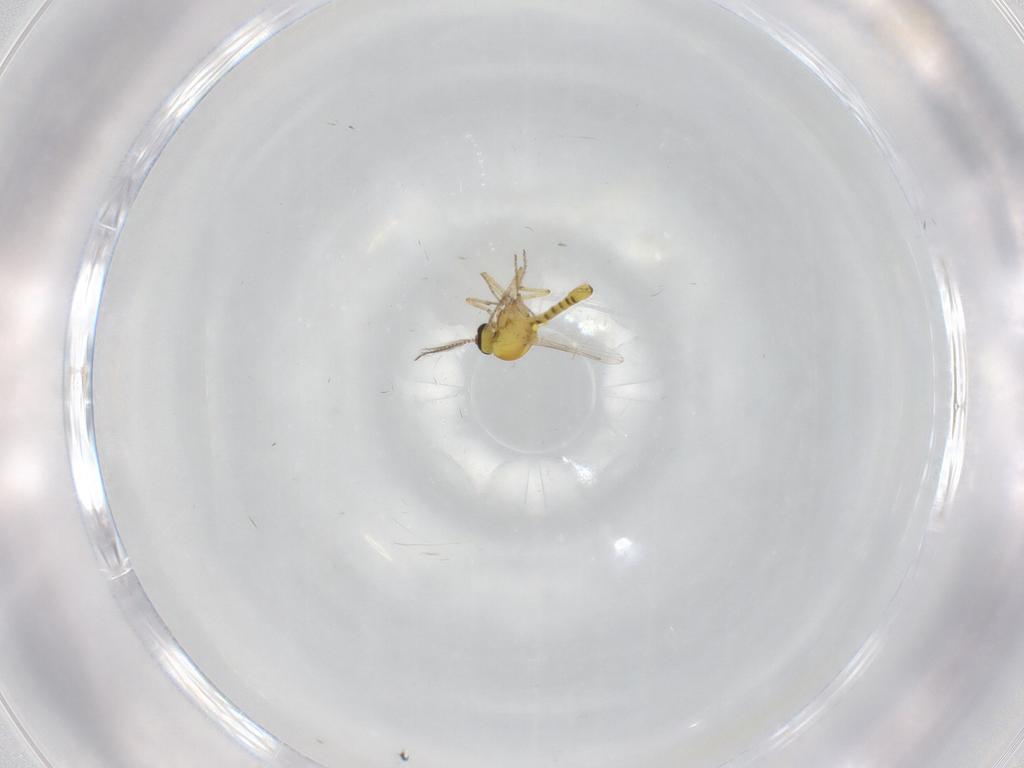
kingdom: Animalia
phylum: Arthropoda
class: Insecta
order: Diptera
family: Ceratopogonidae
